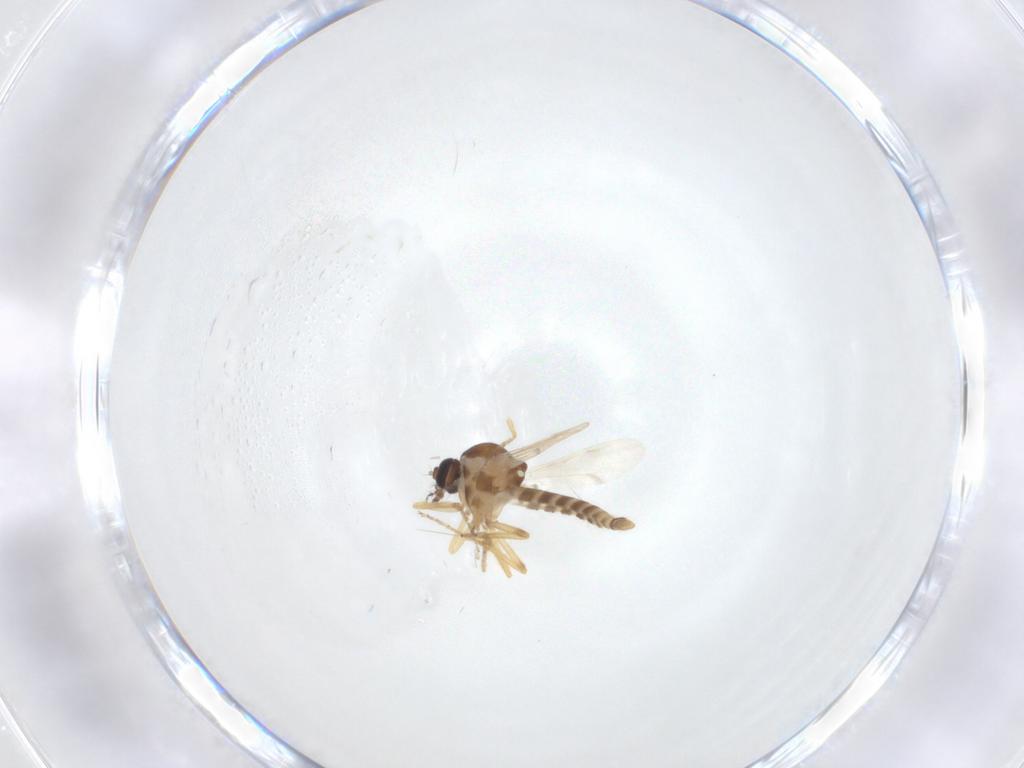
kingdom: Animalia
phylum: Arthropoda
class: Insecta
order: Diptera
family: Ceratopogonidae
